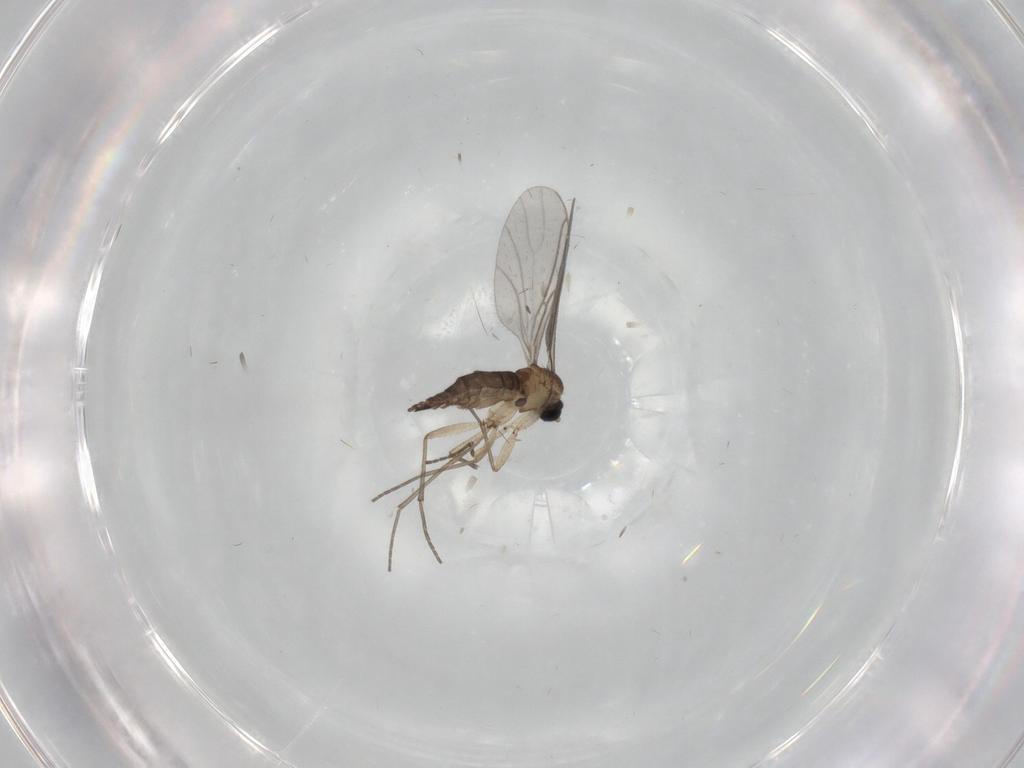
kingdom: Animalia
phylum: Arthropoda
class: Insecta
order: Diptera
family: Sciaridae
